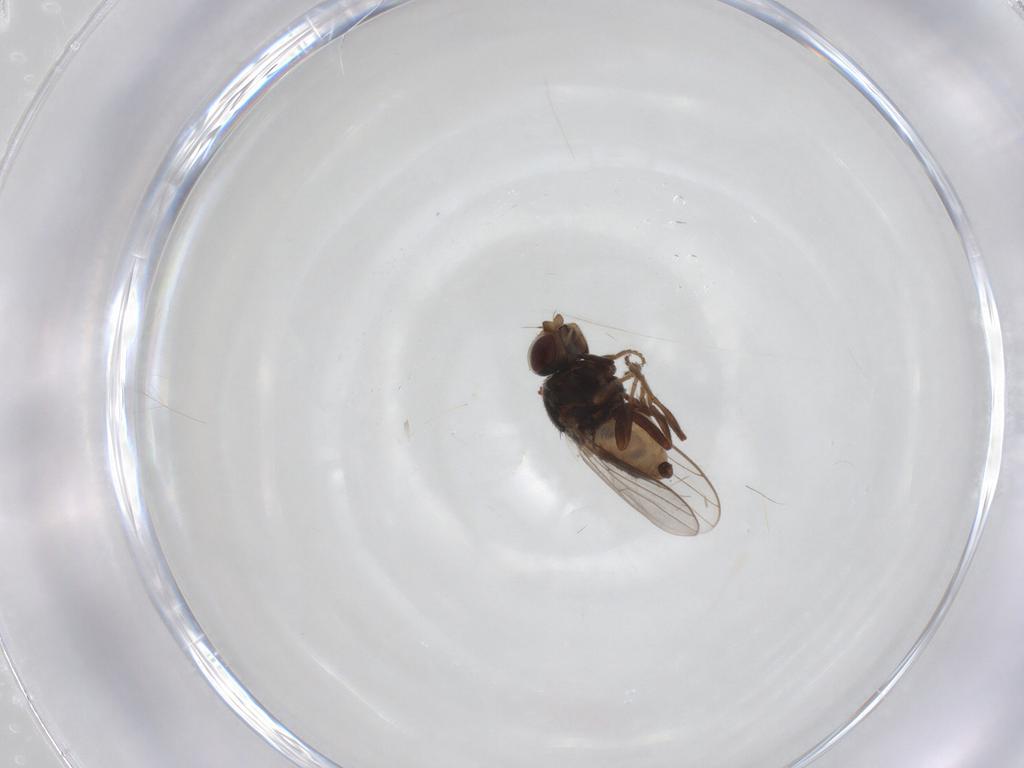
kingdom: Animalia
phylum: Arthropoda
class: Insecta
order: Diptera
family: Chloropidae
